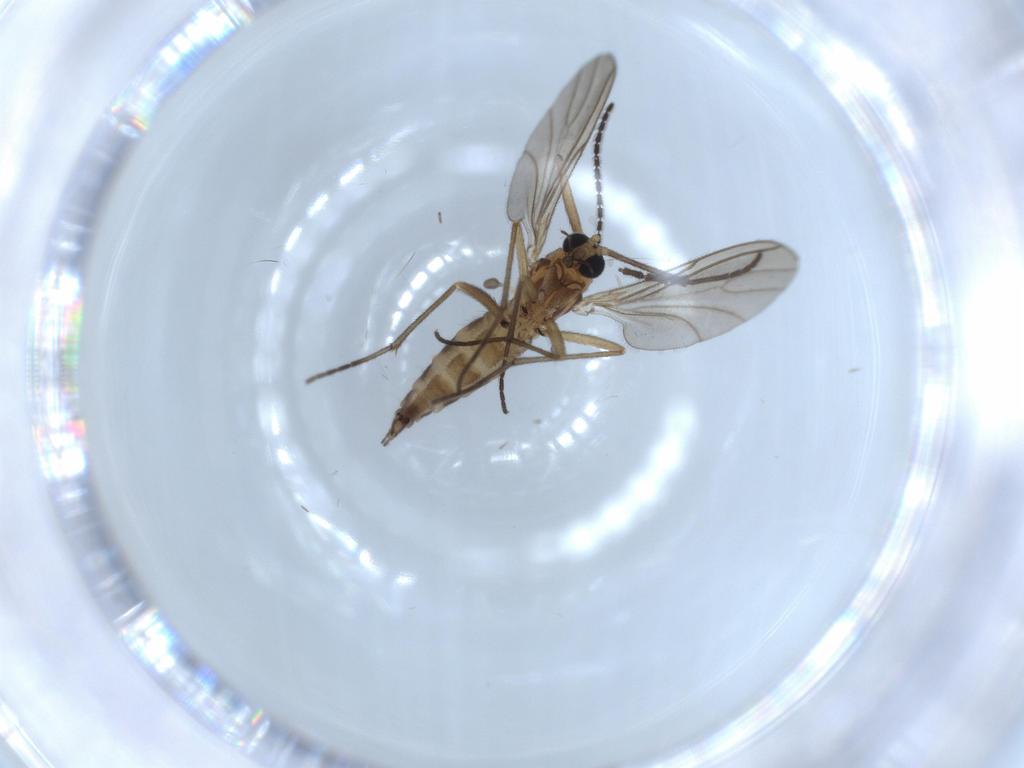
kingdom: Animalia
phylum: Arthropoda
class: Insecta
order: Diptera
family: Sciaridae
